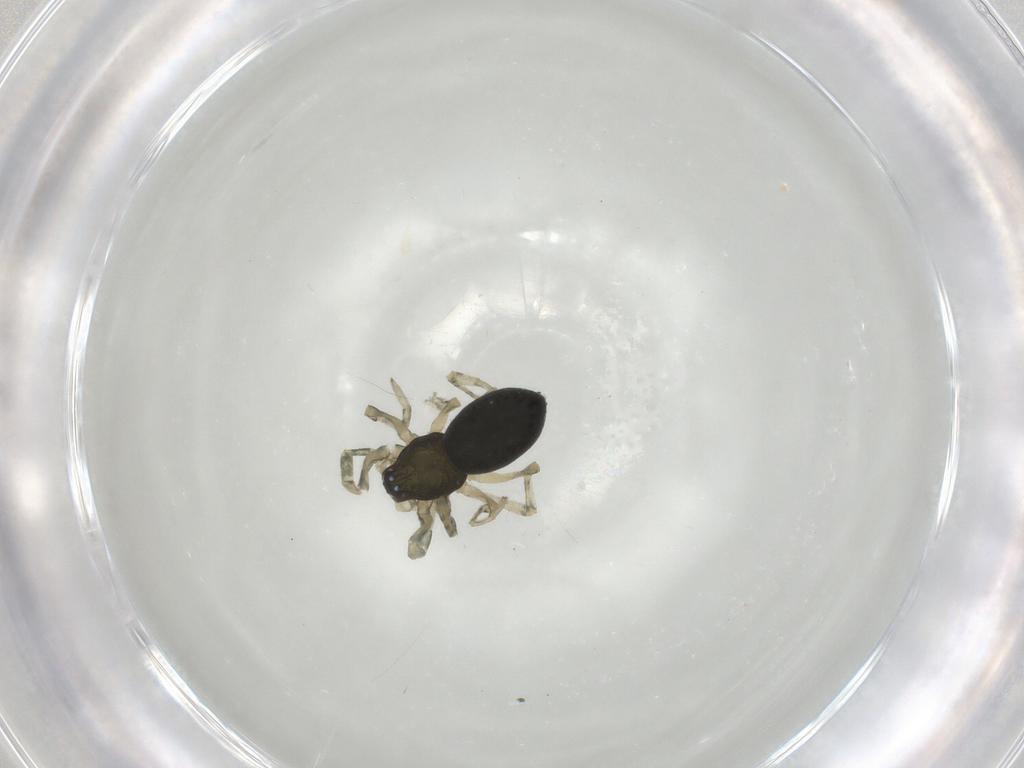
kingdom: Animalia
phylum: Arthropoda
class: Arachnida
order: Araneae
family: Trachelidae
